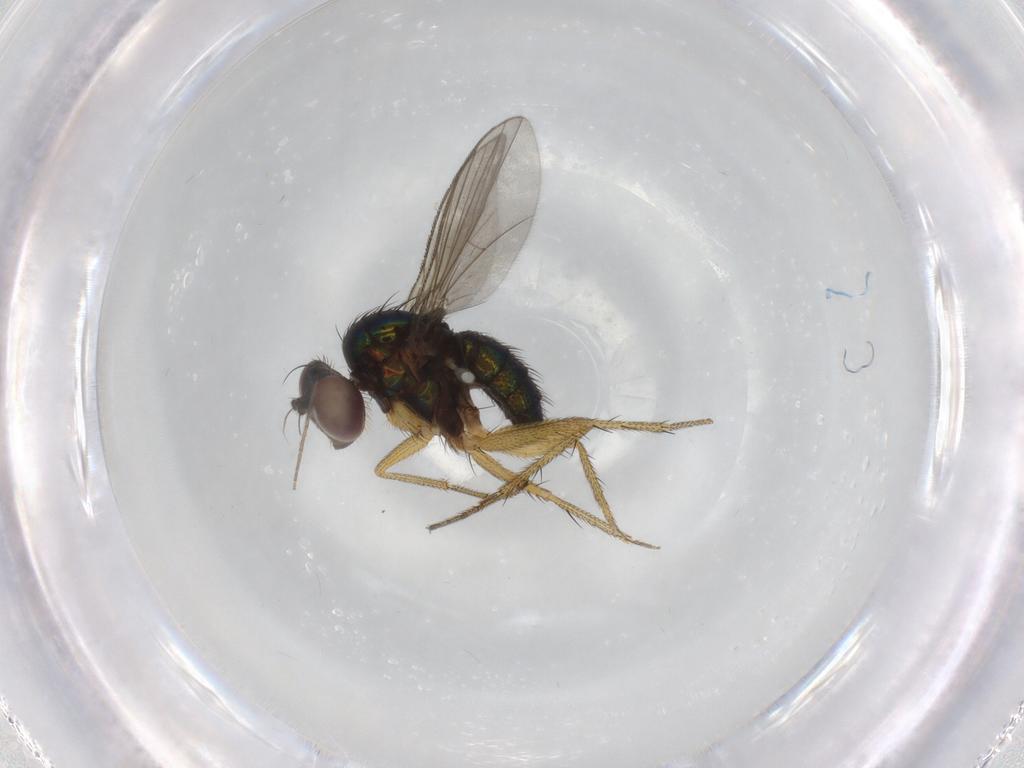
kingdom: Animalia
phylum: Arthropoda
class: Insecta
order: Diptera
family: Chironomidae
